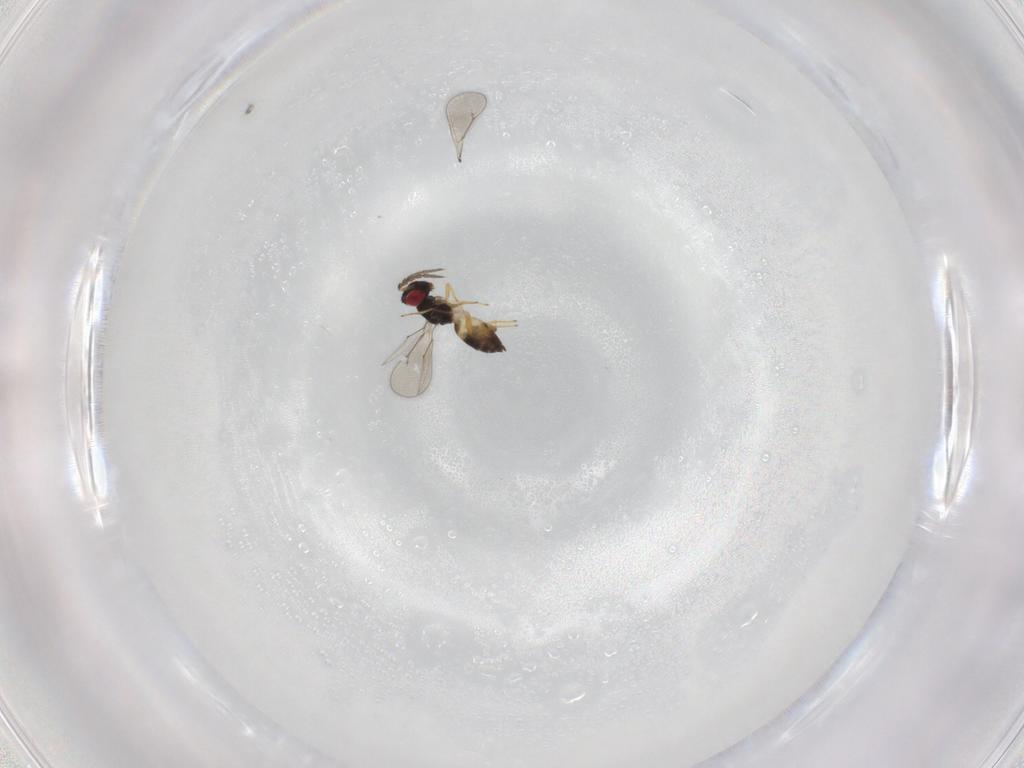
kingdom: Animalia
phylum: Arthropoda
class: Insecta
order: Hymenoptera
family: Eulophidae
